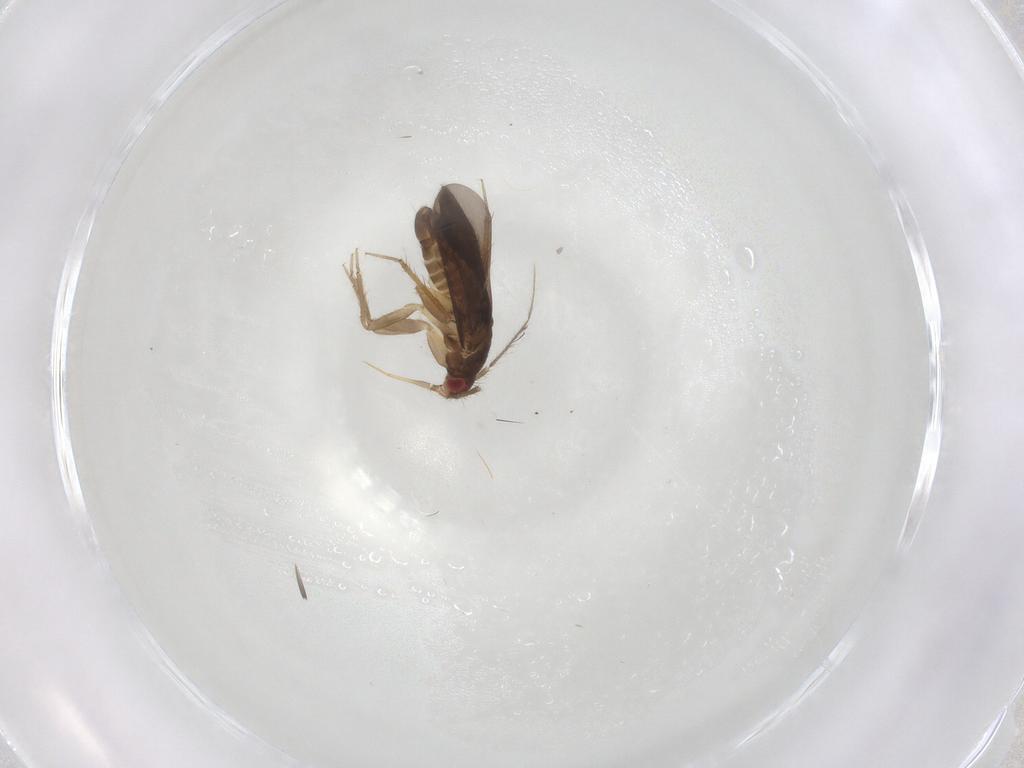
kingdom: Animalia
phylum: Arthropoda
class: Insecta
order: Hemiptera
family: Ceratocombidae
